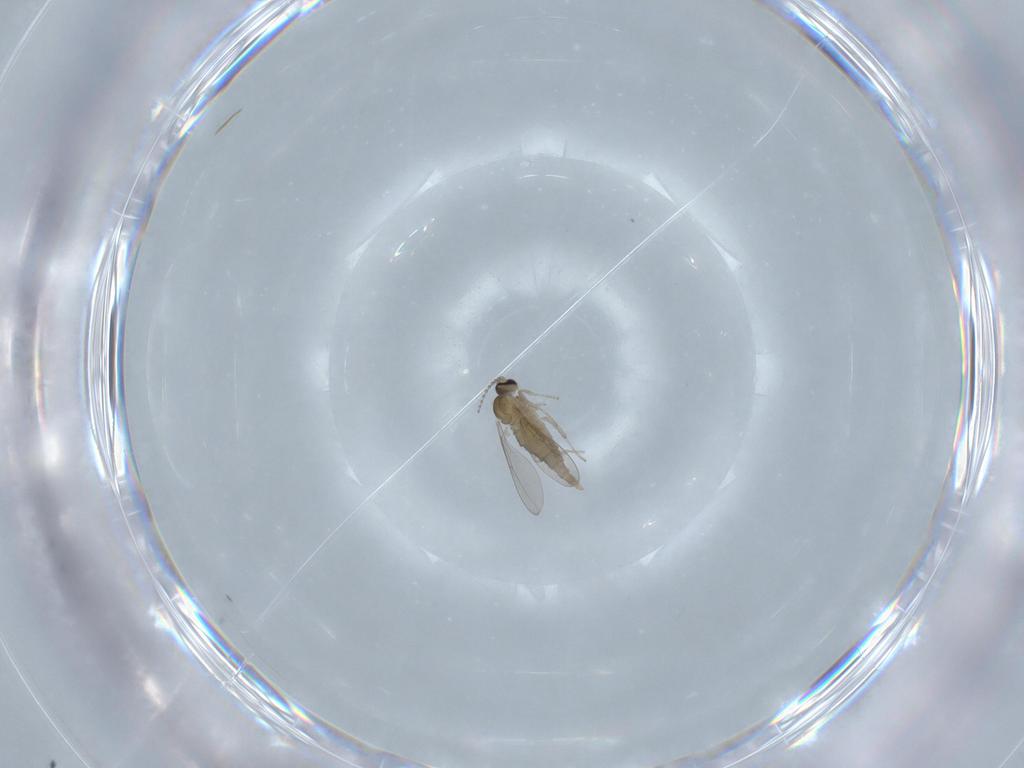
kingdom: Animalia
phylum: Arthropoda
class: Insecta
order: Diptera
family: Cecidomyiidae
